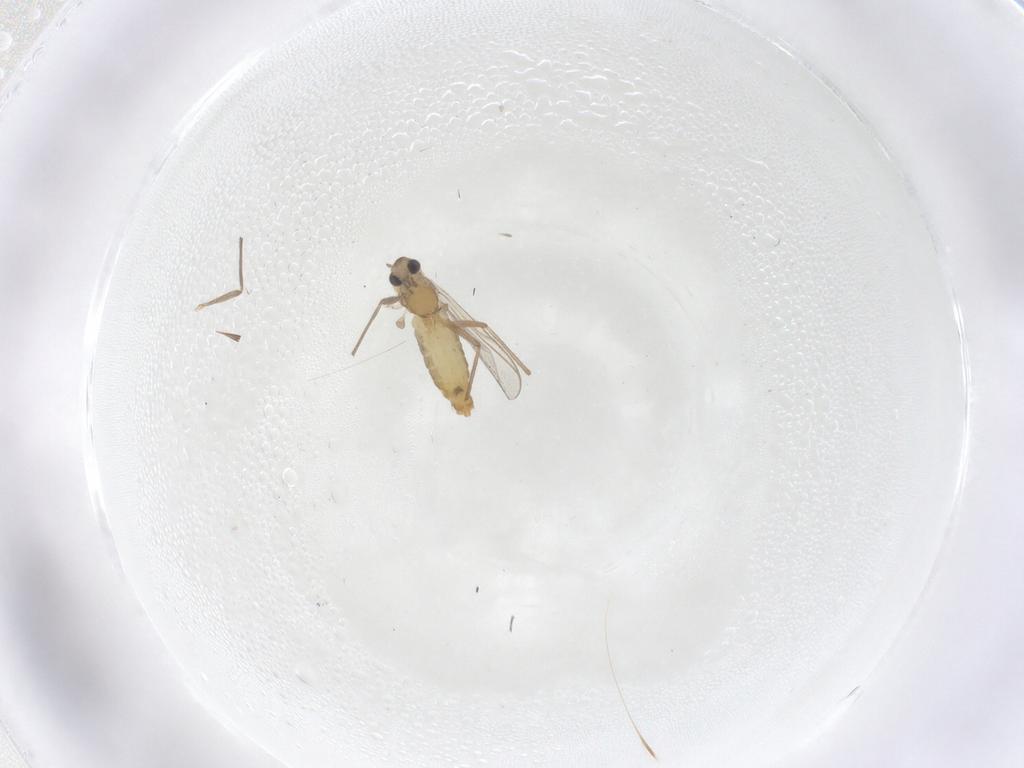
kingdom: Animalia
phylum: Arthropoda
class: Insecta
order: Diptera
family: Chironomidae
